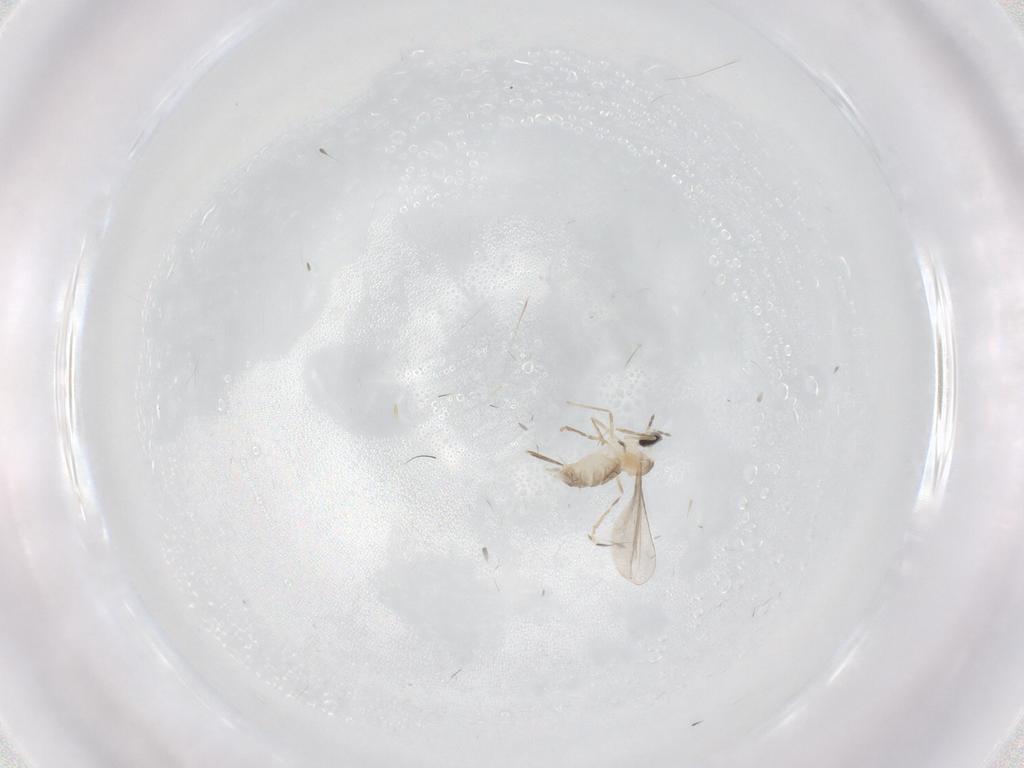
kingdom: Animalia
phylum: Arthropoda
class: Insecta
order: Diptera
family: Cecidomyiidae
